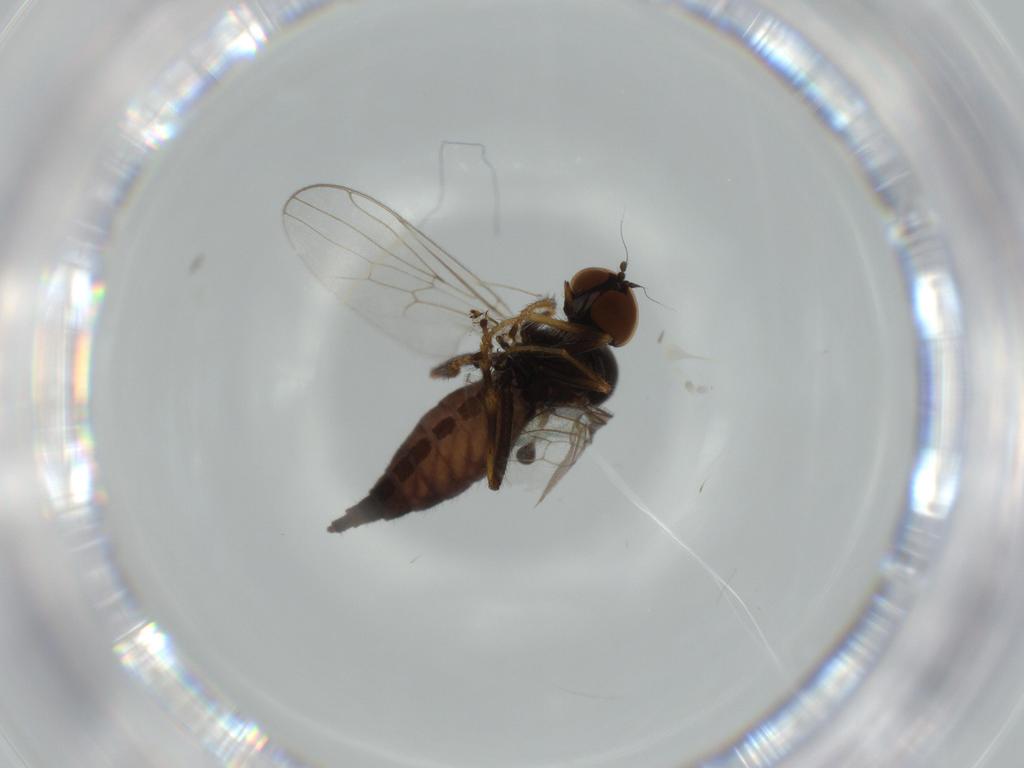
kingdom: Animalia
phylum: Arthropoda
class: Insecta
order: Diptera
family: Hybotidae
